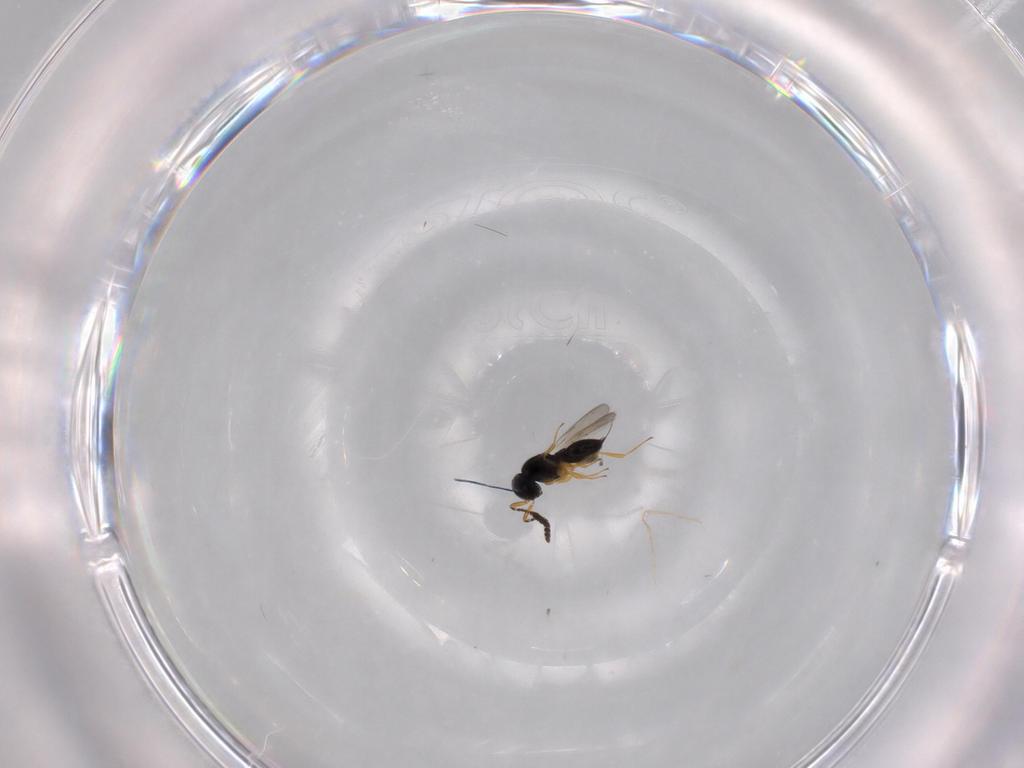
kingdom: Animalia
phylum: Arthropoda
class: Insecta
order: Hymenoptera
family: Scelionidae
